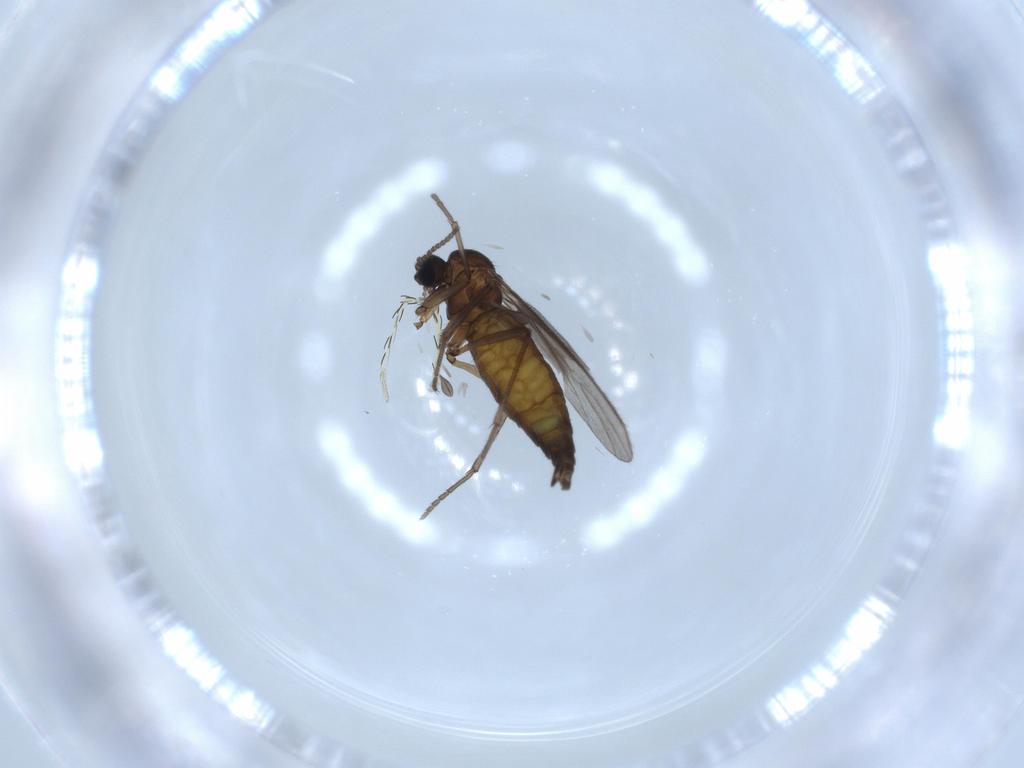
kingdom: Animalia
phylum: Arthropoda
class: Insecta
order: Diptera
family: Sciaridae
